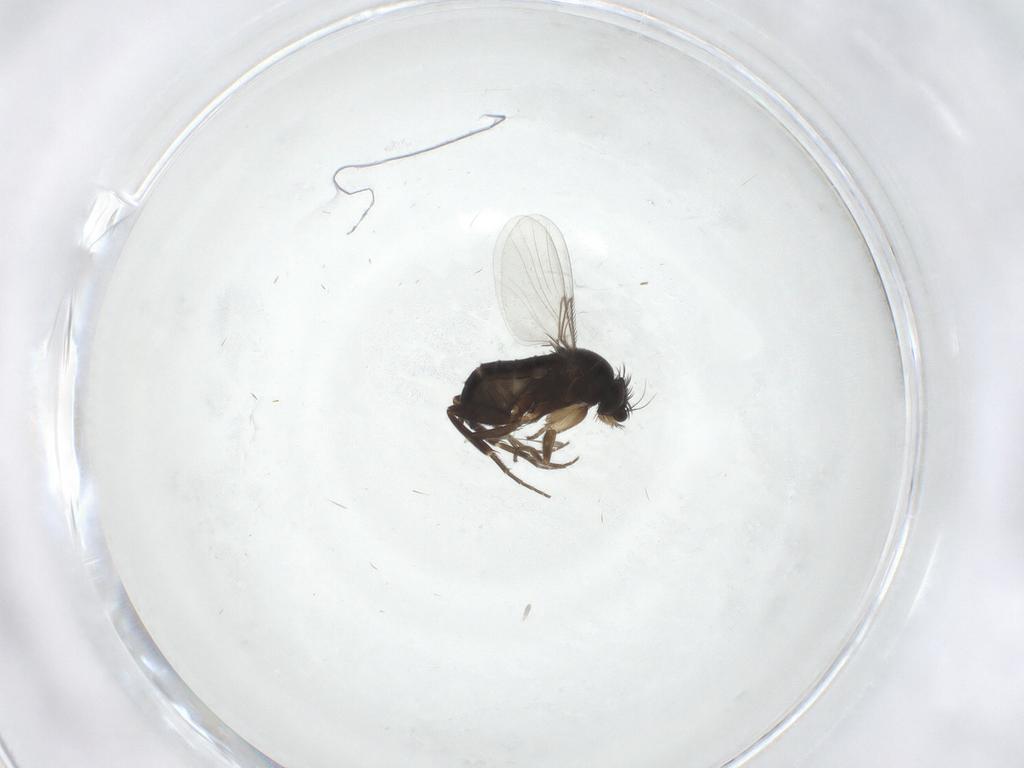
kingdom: Animalia
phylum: Arthropoda
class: Insecta
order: Diptera
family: Phoridae
